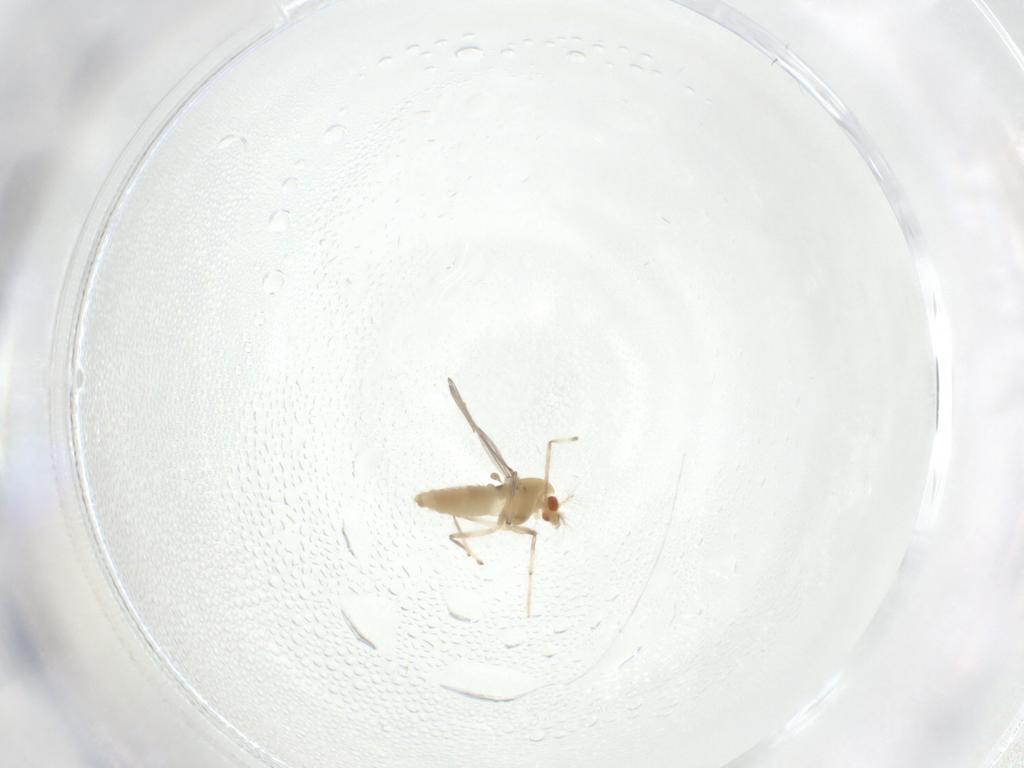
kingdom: Animalia
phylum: Arthropoda
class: Insecta
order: Diptera
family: Chironomidae
